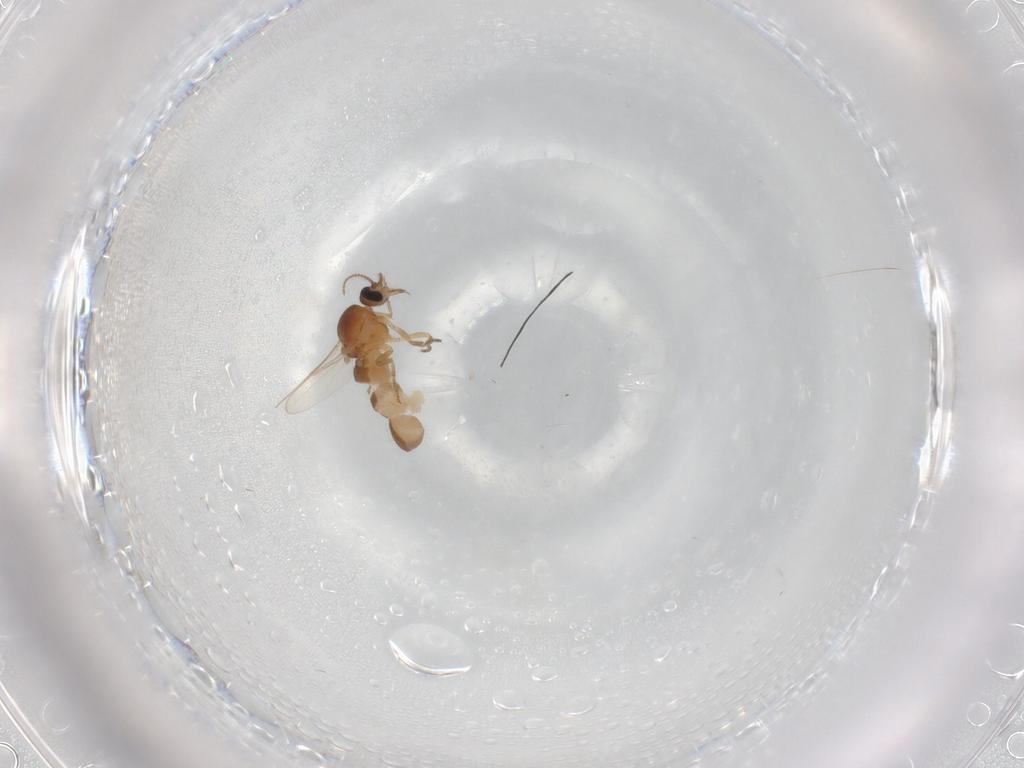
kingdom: Animalia
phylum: Arthropoda
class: Insecta
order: Diptera
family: Ceratopogonidae
